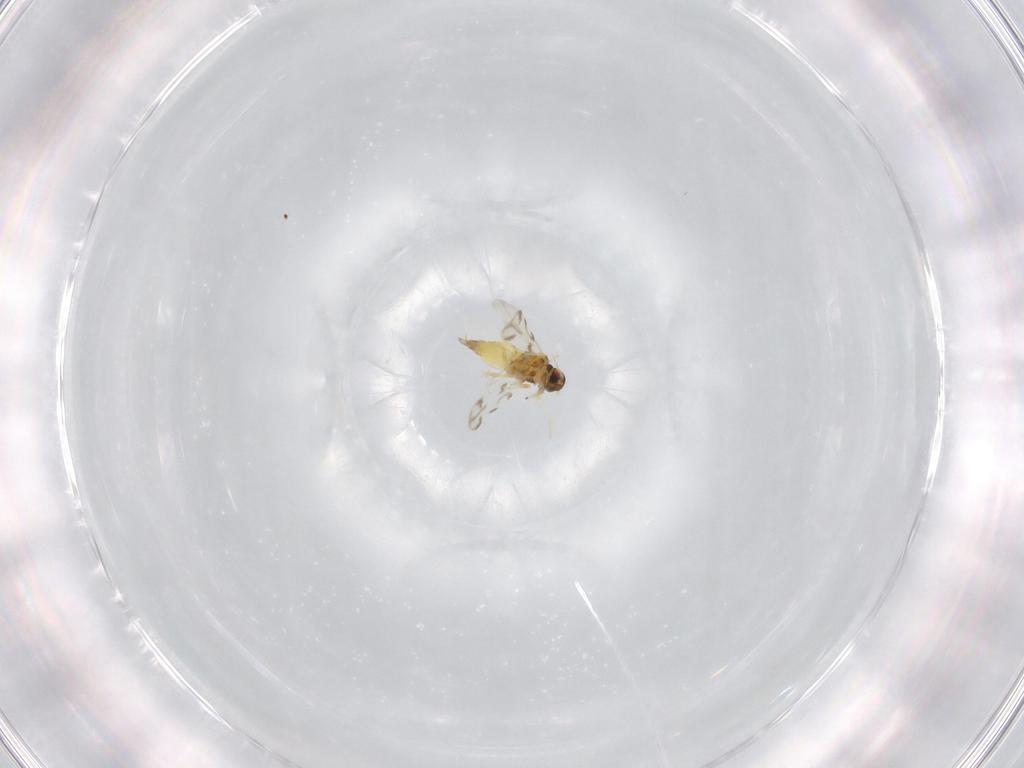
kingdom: Animalia
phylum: Arthropoda
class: Insecta
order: Hemiptera
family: Aleyrodidae
